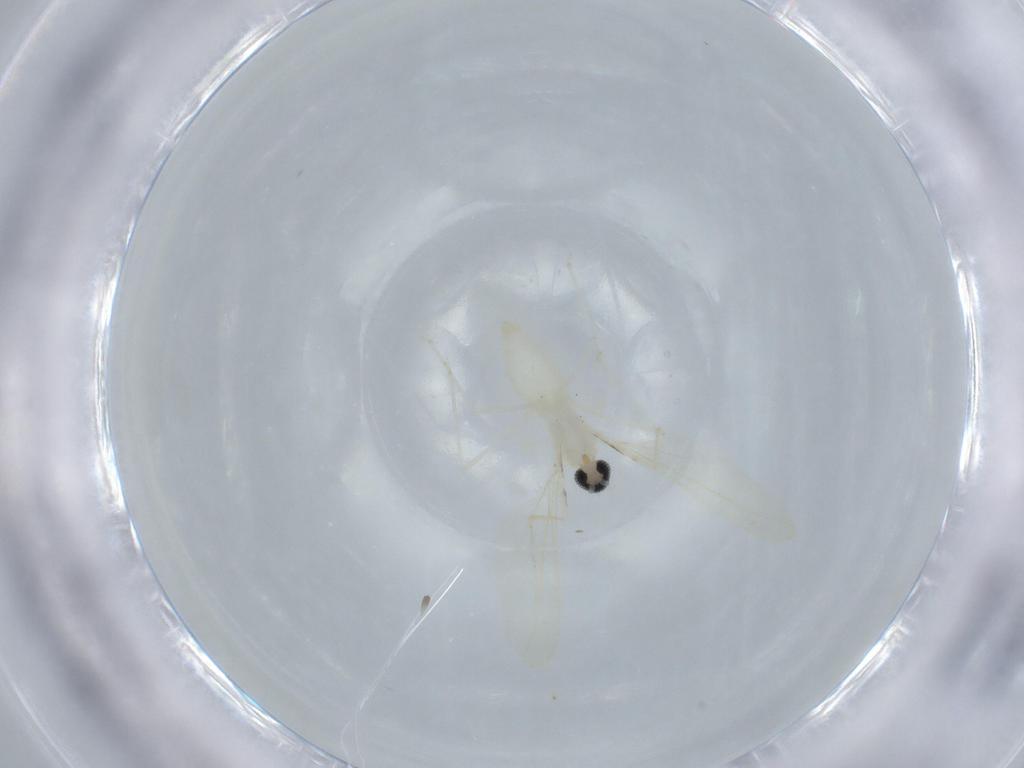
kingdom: Animalia
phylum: Arthropoda
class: Insecta
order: Diptera
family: Cecidomyiidae
